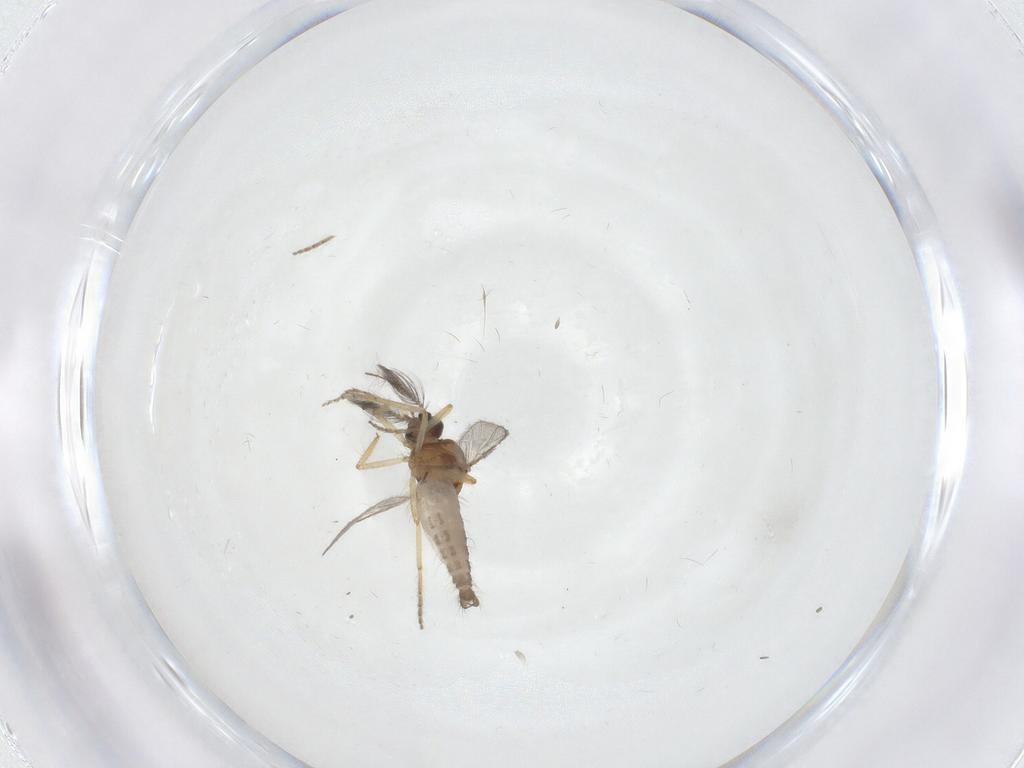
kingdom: Animalia
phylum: Arthropoda
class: Insecta
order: Diptera
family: Ceratopogonidae
